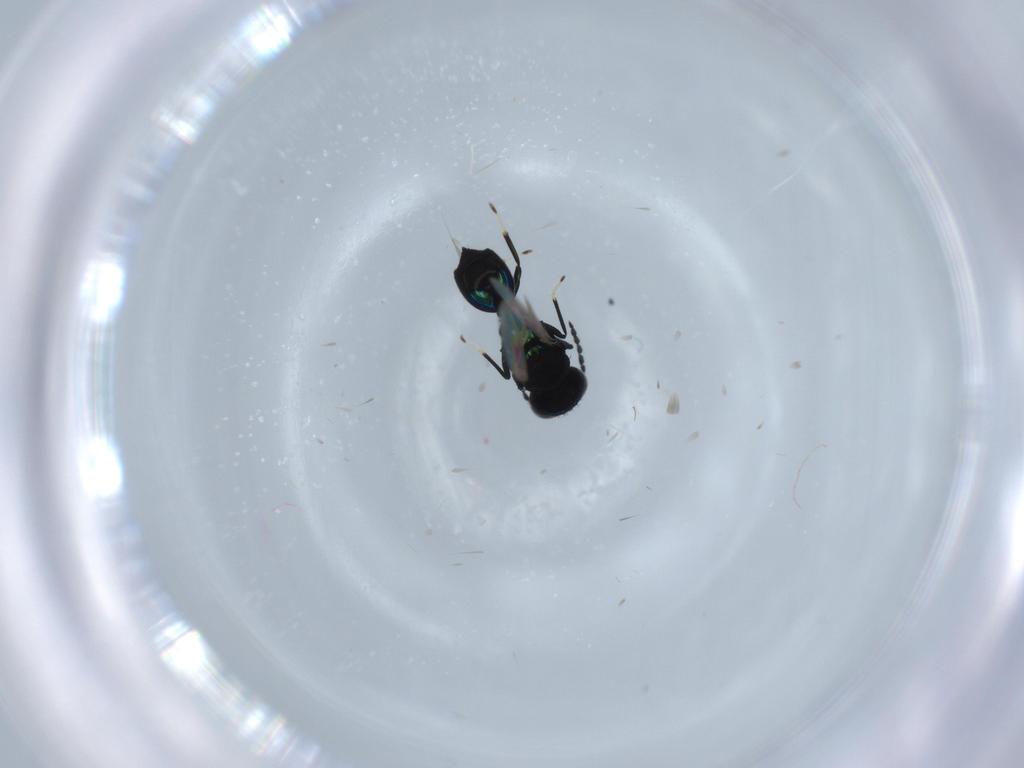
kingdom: Animalia
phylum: Arthropoda
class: Insecta
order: Hymenoptera
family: Eulophidae
